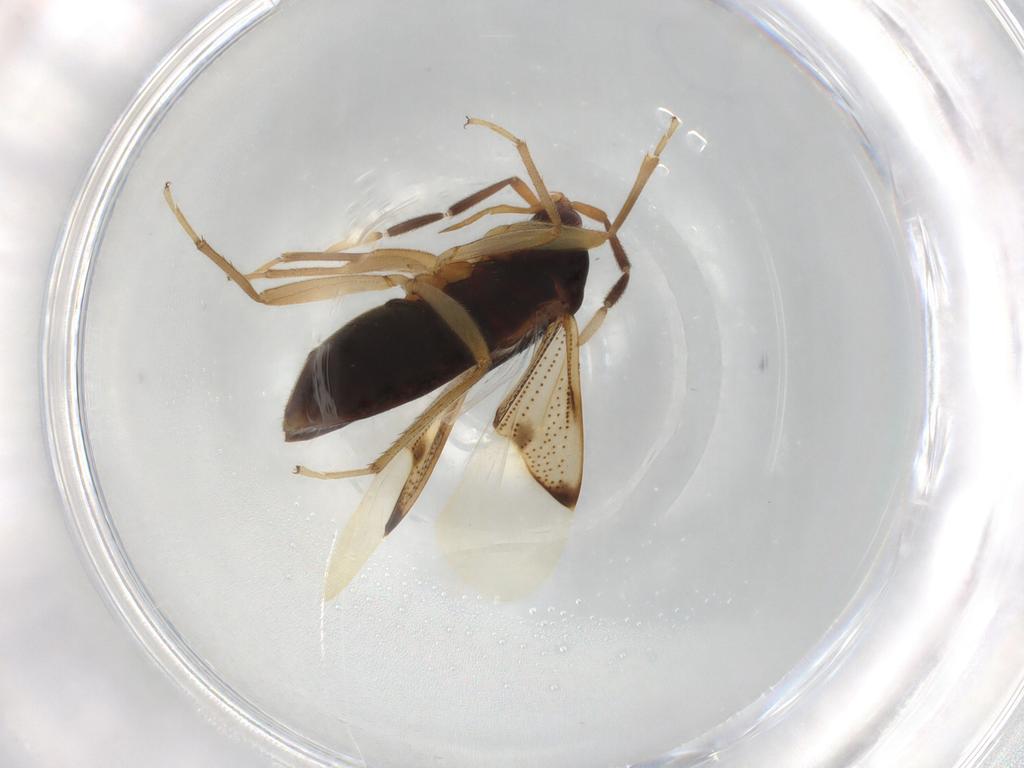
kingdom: Animalia
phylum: Arthropoda
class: Insecta
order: Hemiptera
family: Rhyparochromidae
